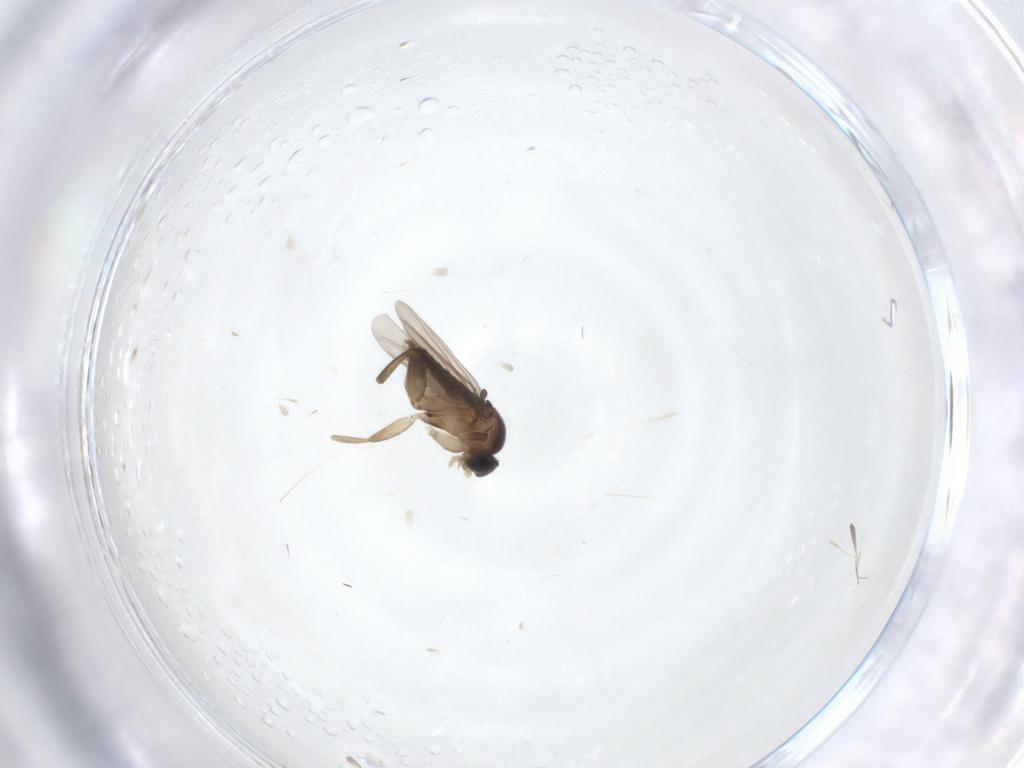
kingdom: Animalia
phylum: Arthropoda
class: Insecta
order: Diptera
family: Phoridae
